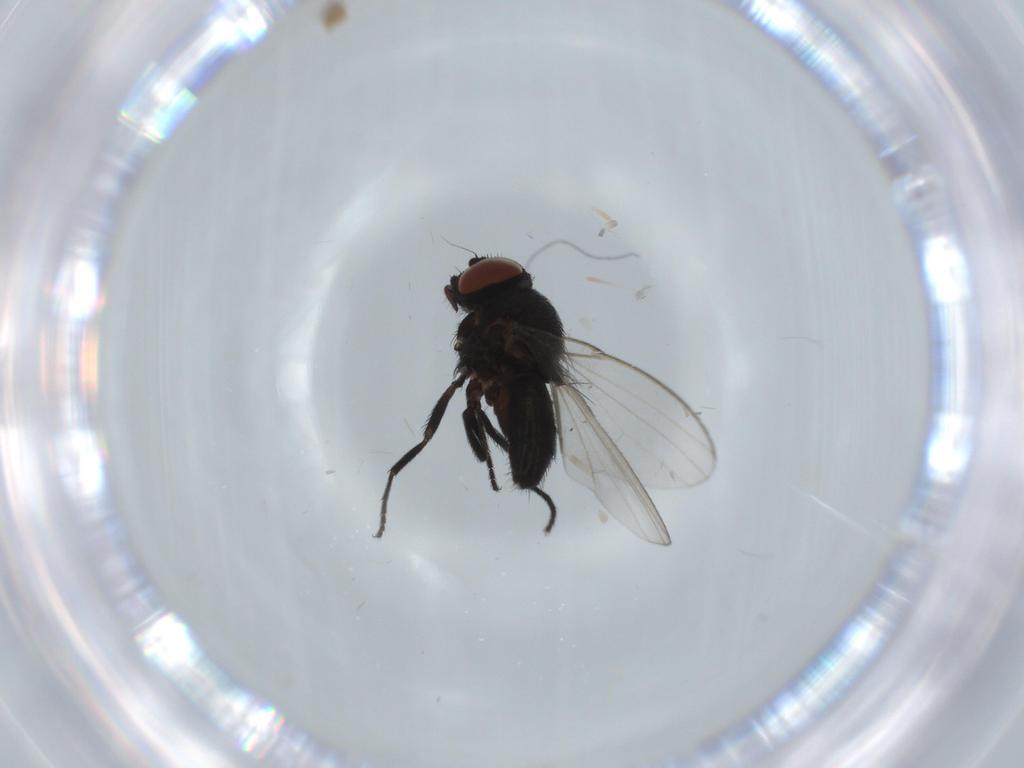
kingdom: Animalia
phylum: Arthropoda
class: Insecta
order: Diptera
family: Milichiidae
